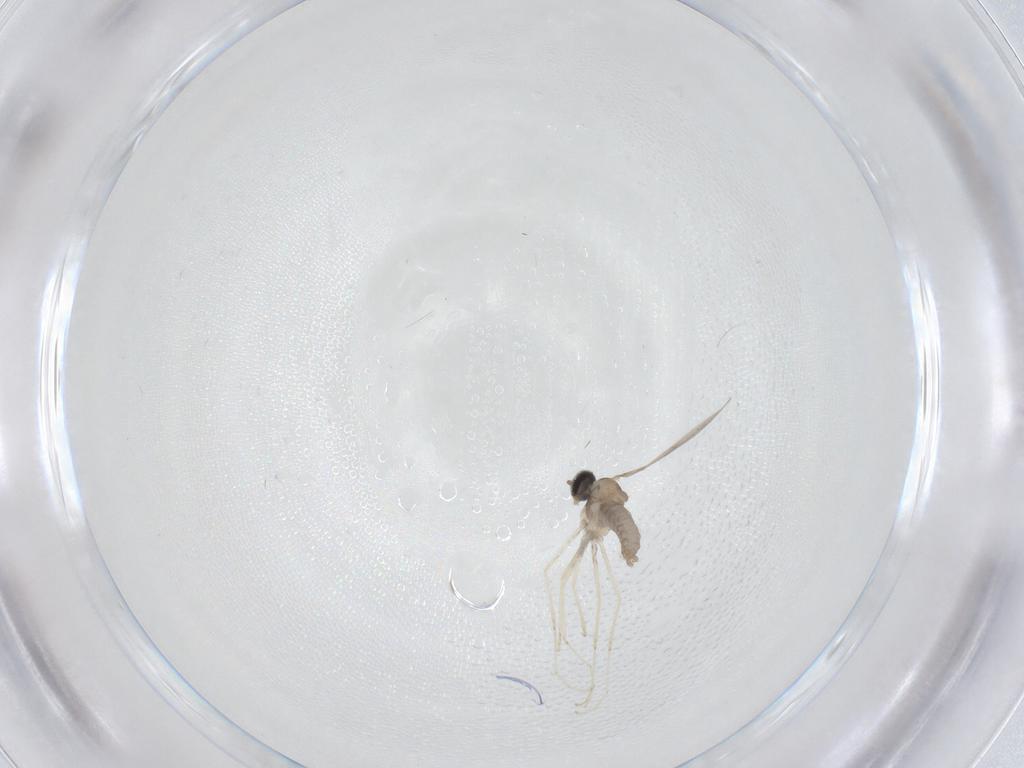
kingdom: Animalia
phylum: Arthropoda
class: Insecta
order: Diptera
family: Cecidomyiidae
